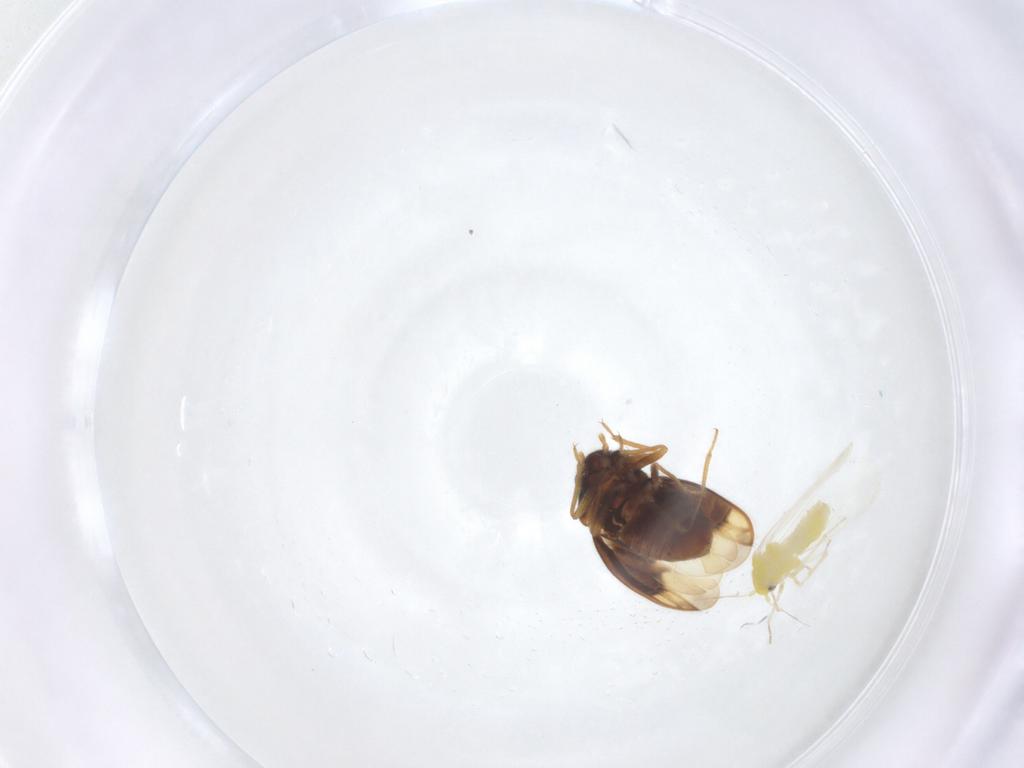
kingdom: Animalia
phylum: Arthropoda
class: Insecta
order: Hemiptera
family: Schizopteridae
